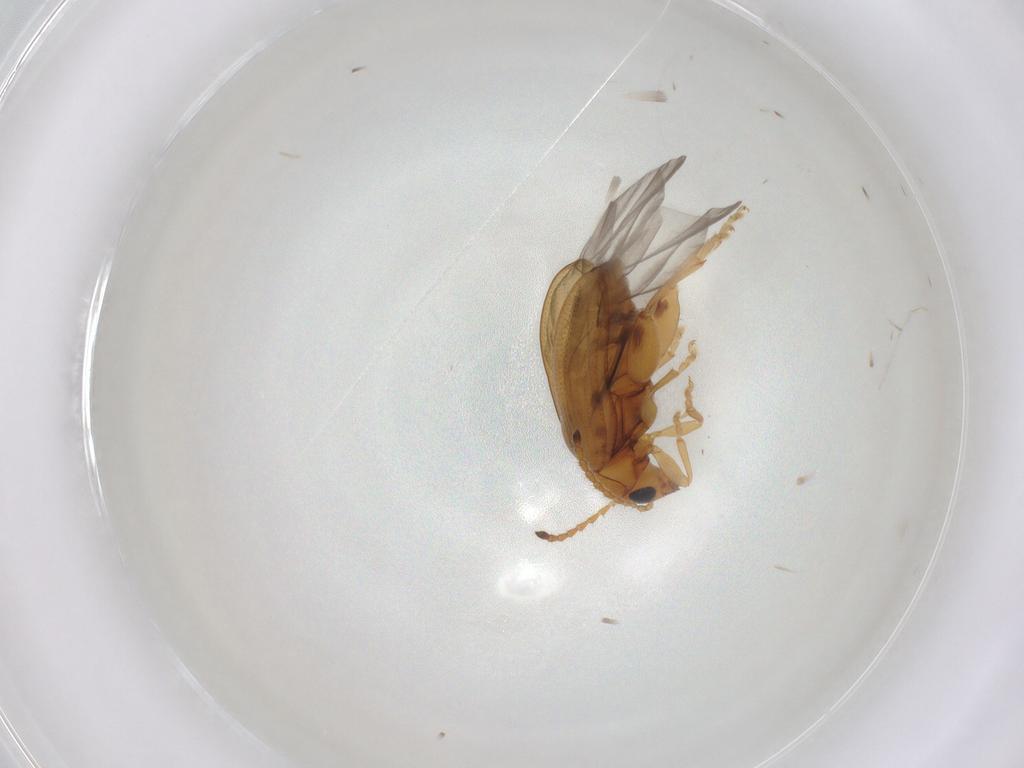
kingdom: Animalia
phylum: Arthropoda
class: Insecta
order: Coleoptera
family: Chrysomelidae
